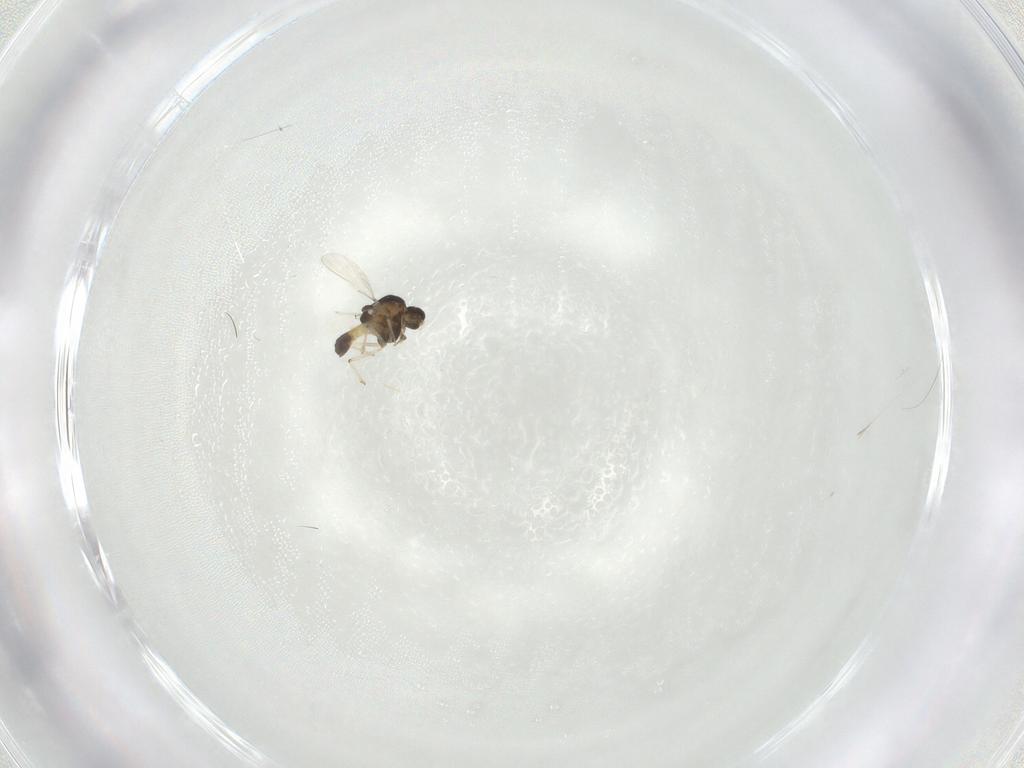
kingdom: Animalia
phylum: Arthropoda
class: Insecta
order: Diptera
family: Chironomidae
